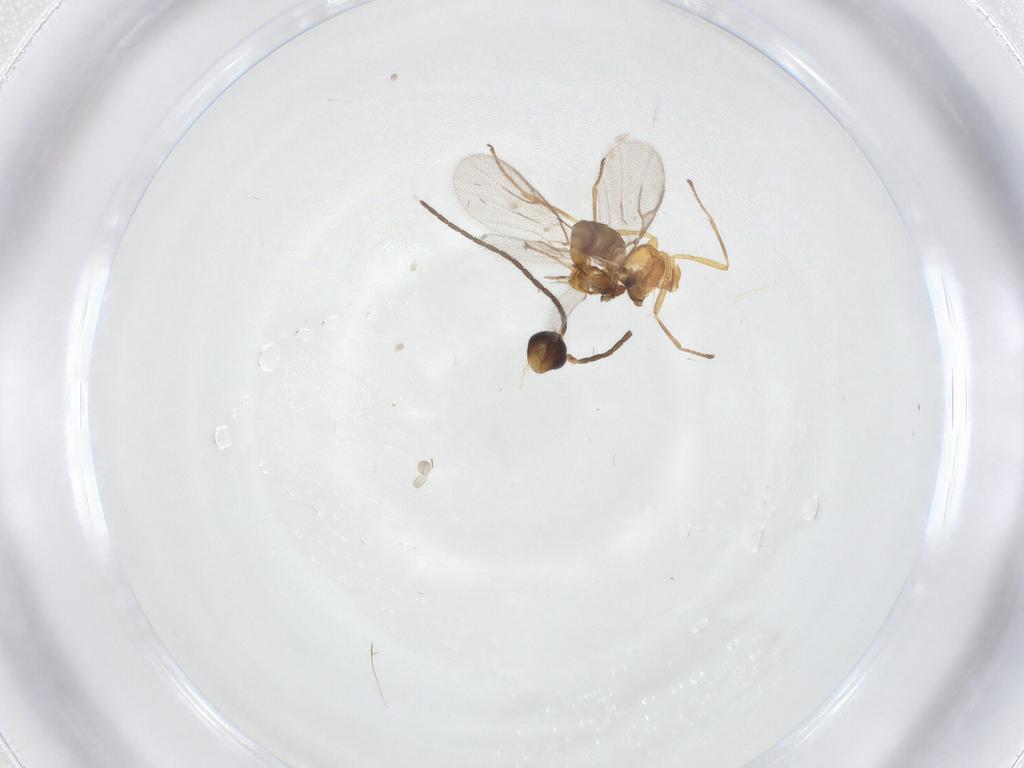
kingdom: Animalia
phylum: Arthropoda
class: Insecta
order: Hymenoptera
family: Braconidae
